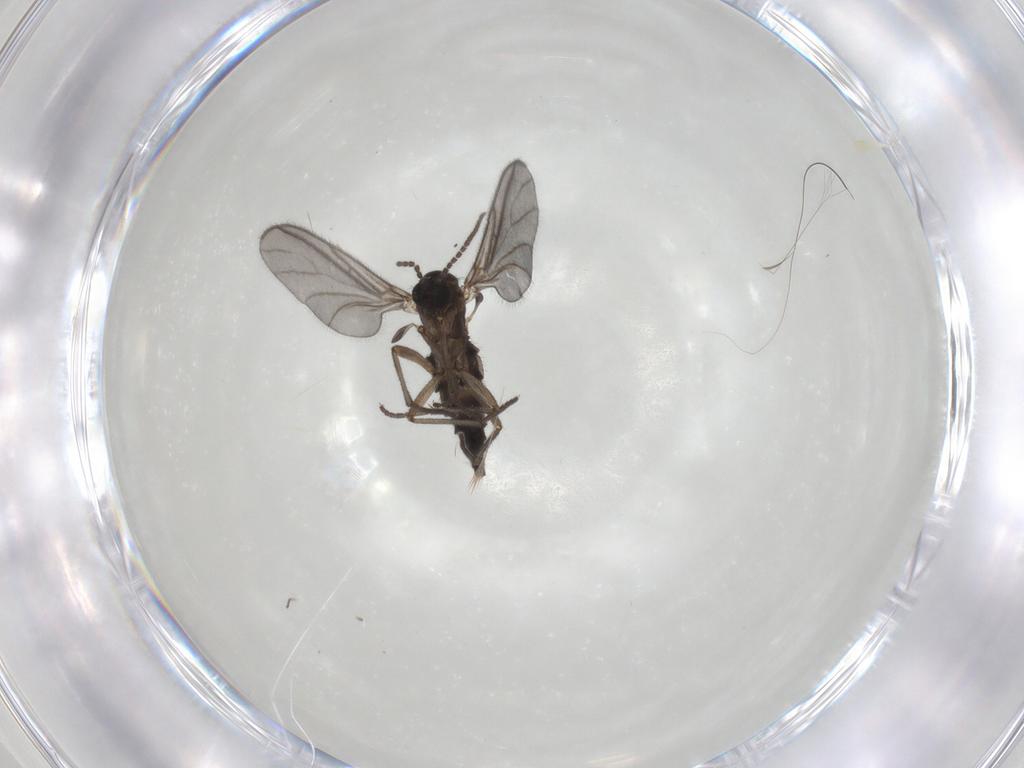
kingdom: Animalia
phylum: Arthropoda
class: Insecta
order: Diptera
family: Sciaridae
